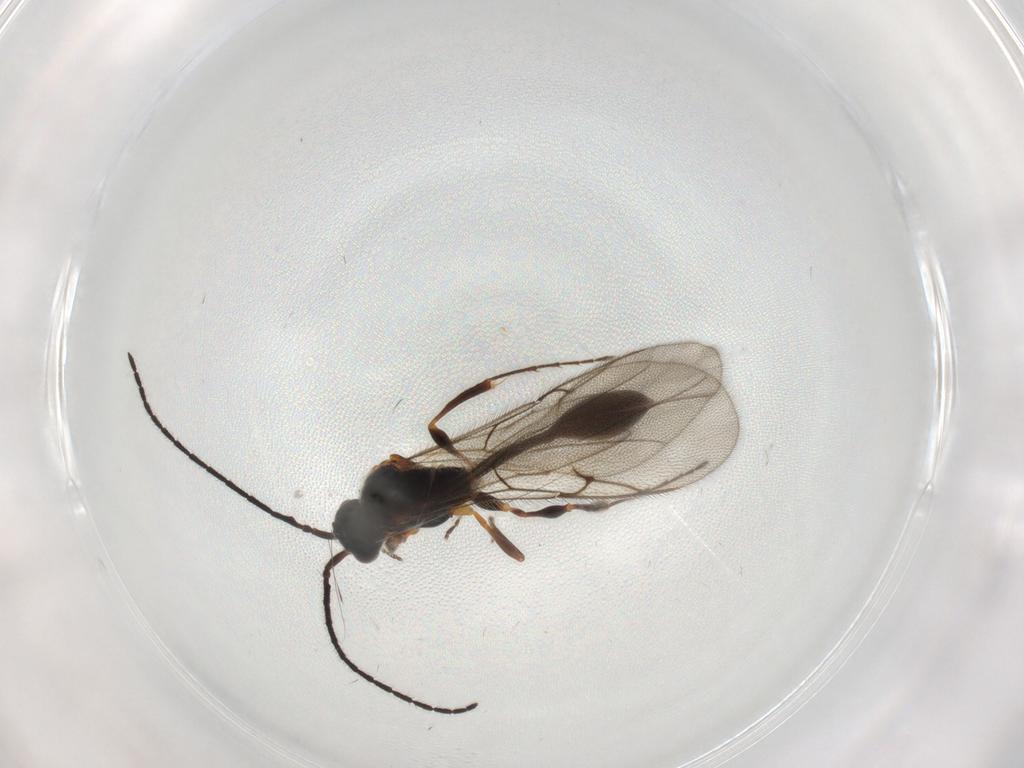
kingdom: Animalia
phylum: Arthropoda
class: Insecta
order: Hymenoptera
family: Diapriidae
